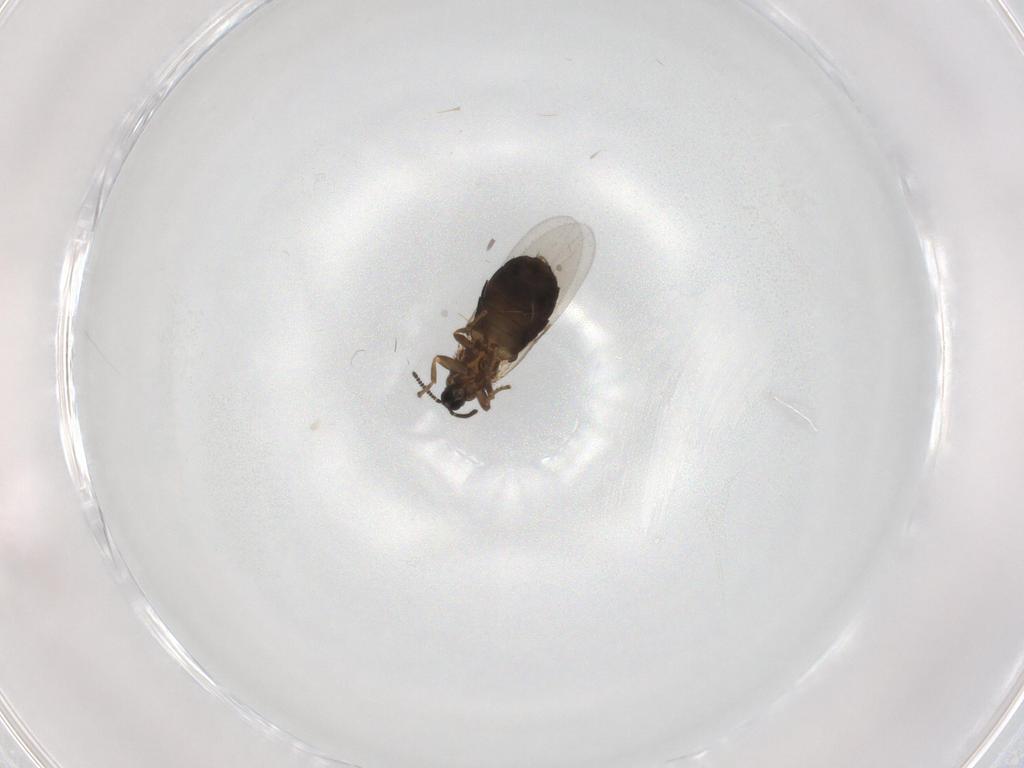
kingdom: Animalia
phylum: Arthropoda
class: Insecta
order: Diptera
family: Scatopsidae
